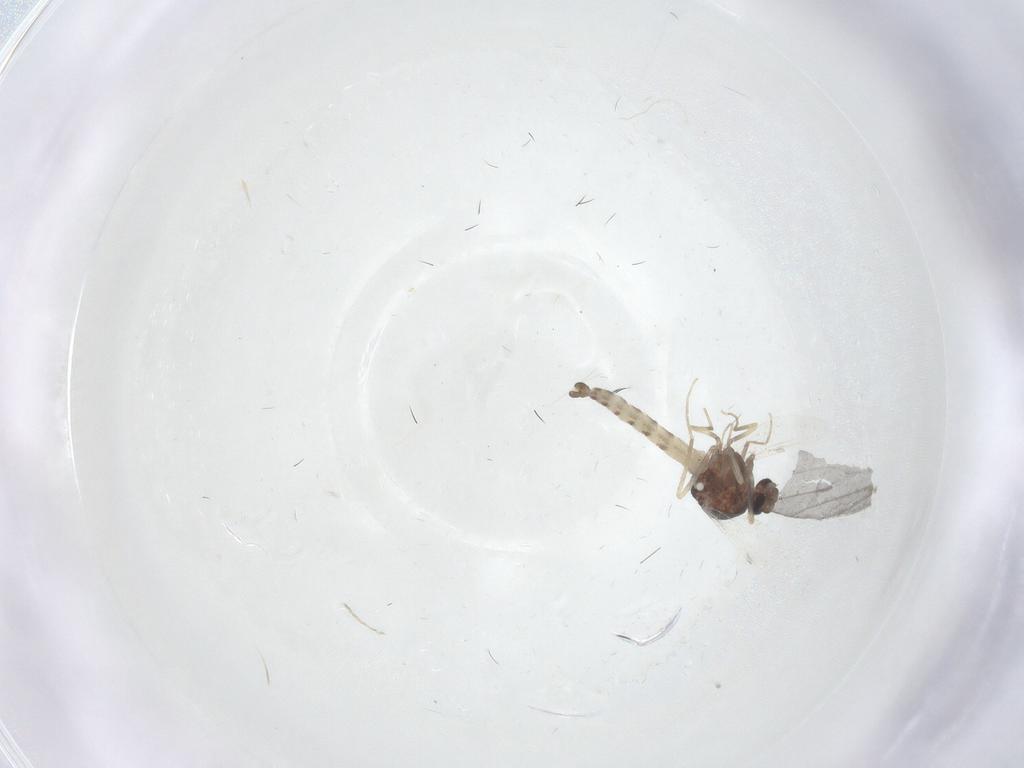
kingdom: Animalia
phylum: Arthropoda
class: Insecta
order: Diptera
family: Ceratopogonidae
